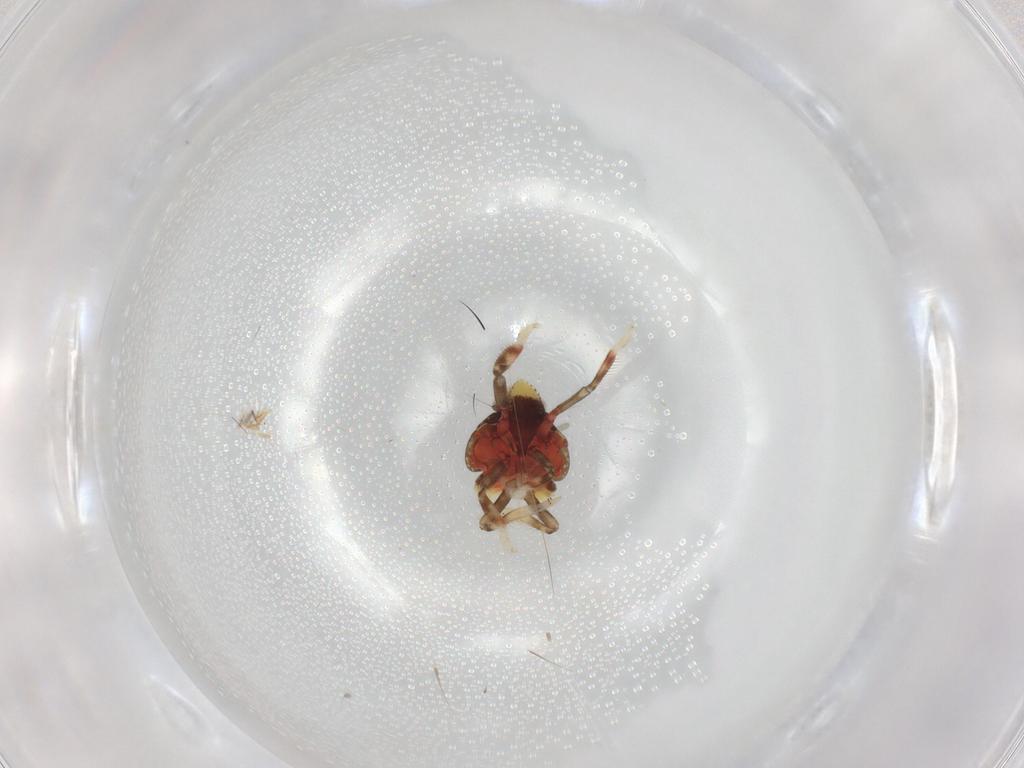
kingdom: Animalia
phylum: Arthropoda
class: Insecta
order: Hemiptera
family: Issidae
